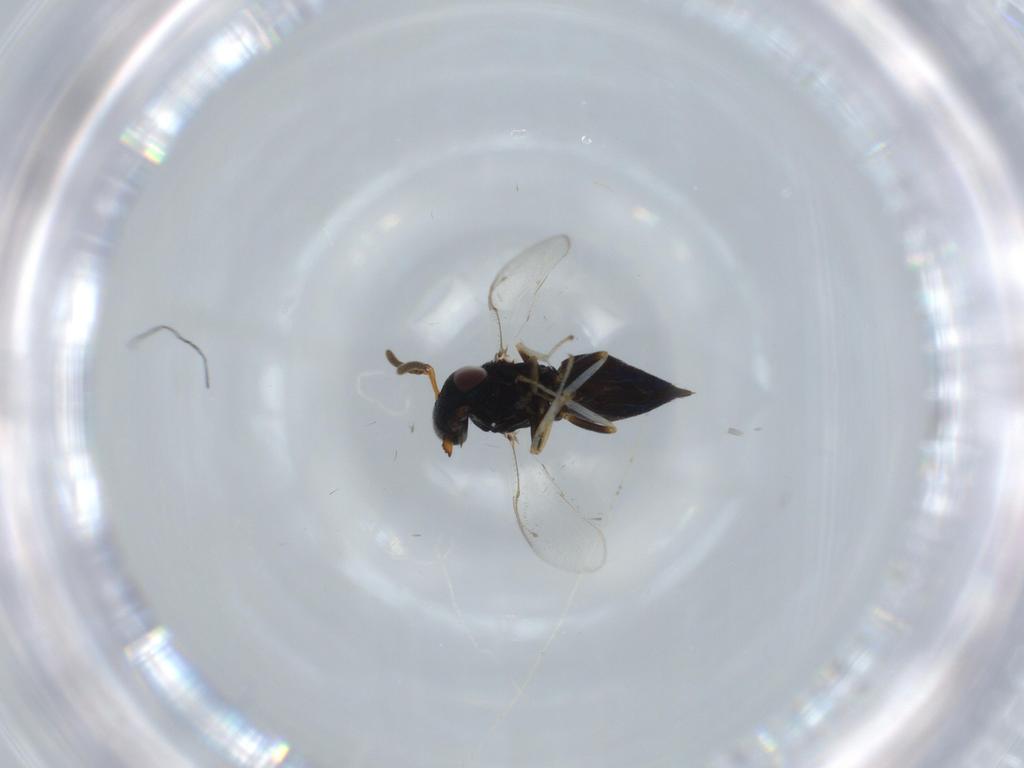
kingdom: Animalia
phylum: Arthropoda
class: Insecta
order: Hymenoptera
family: Pteromalidae
